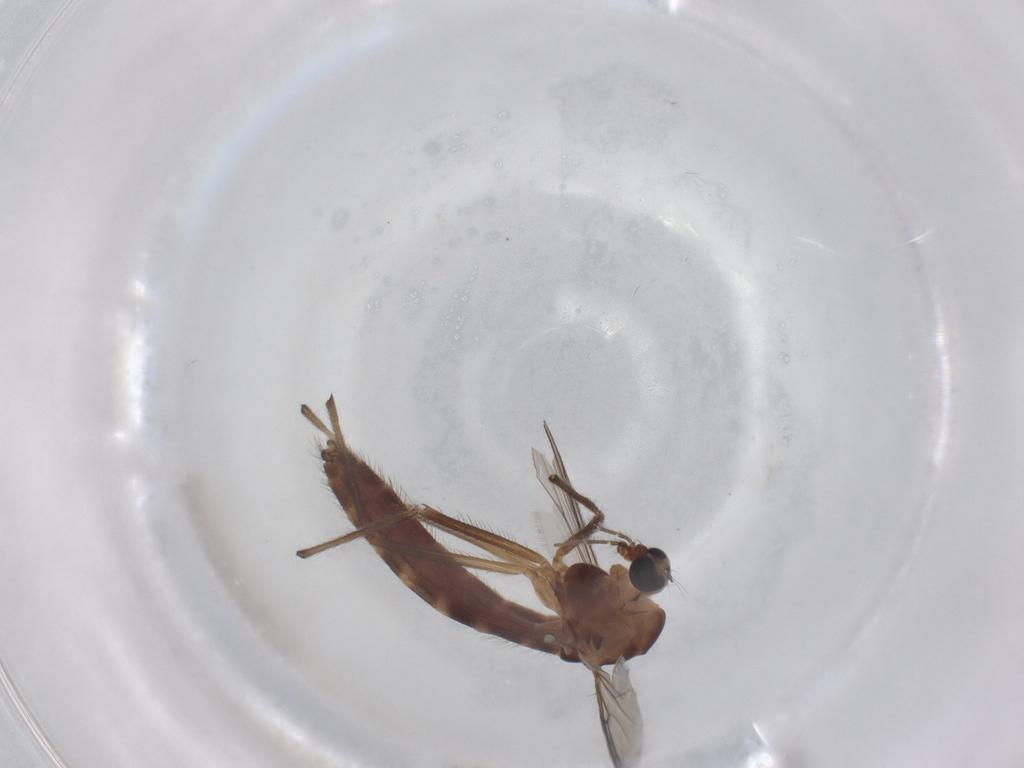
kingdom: Animalia
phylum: Arthropoda
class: Insecta
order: Diptera
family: Chironomidae
